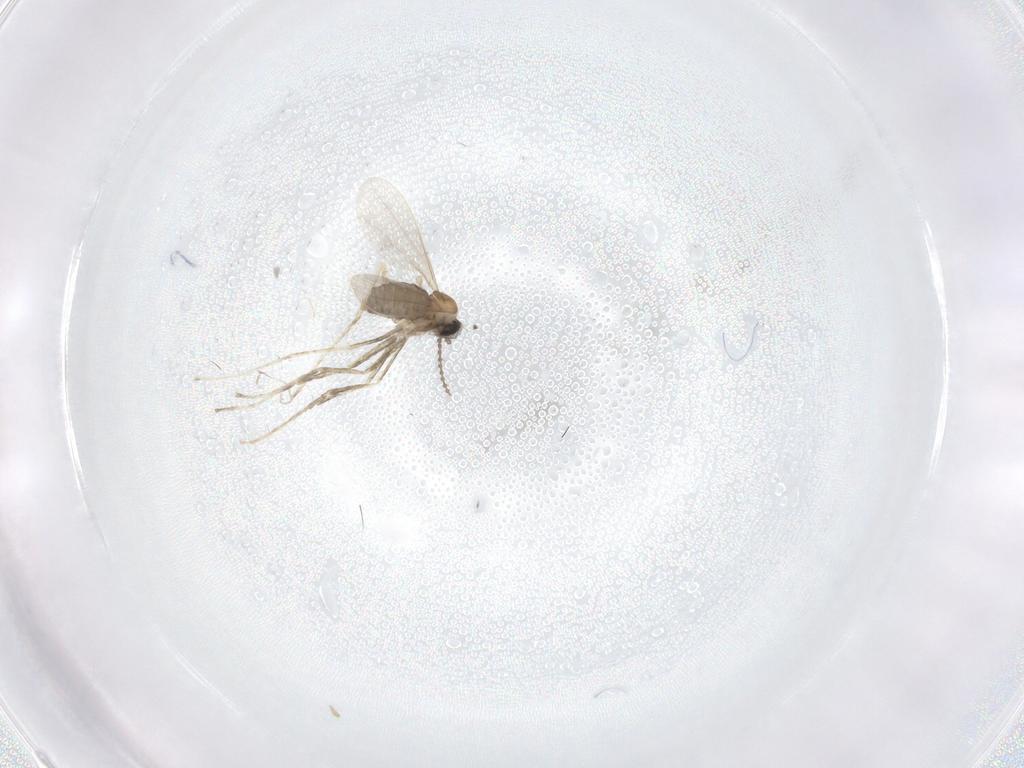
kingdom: Animalia
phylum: Arthropoda
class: Insecta
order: Diptera
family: Cecidomyiidae
